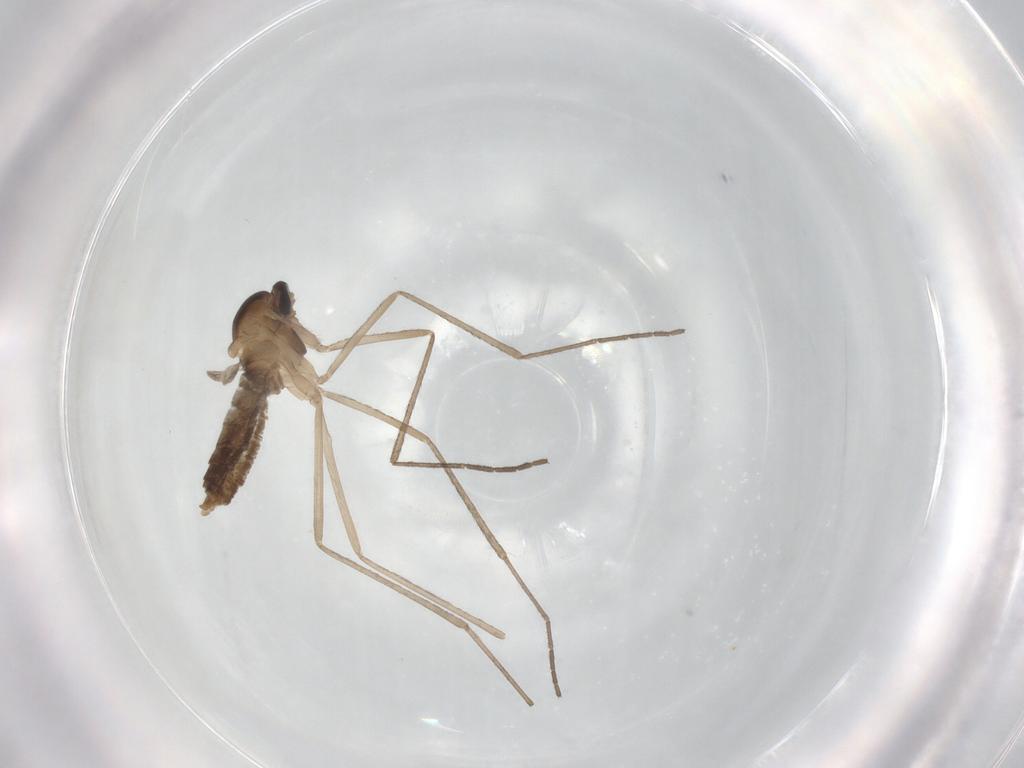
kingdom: Animalia
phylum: Arthropoda
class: Insecta
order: Diptera
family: Cecidomyiidae
